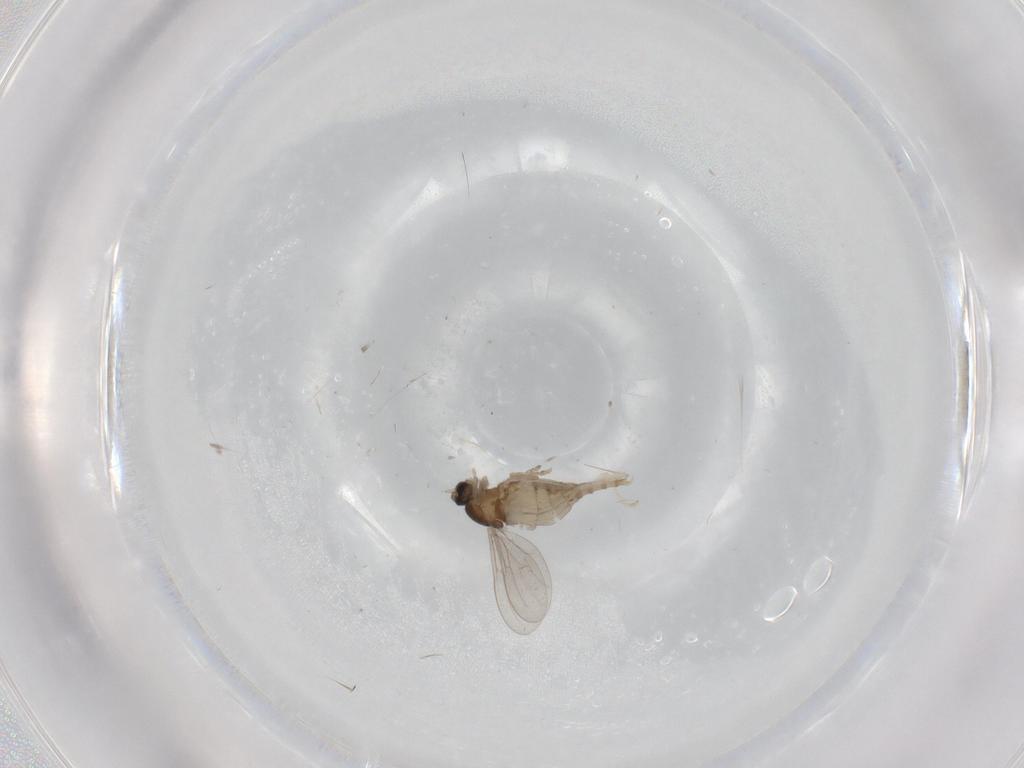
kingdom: Animalia
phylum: Arthropoda
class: Insecta
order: Diptera
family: Cecidomyiidae
